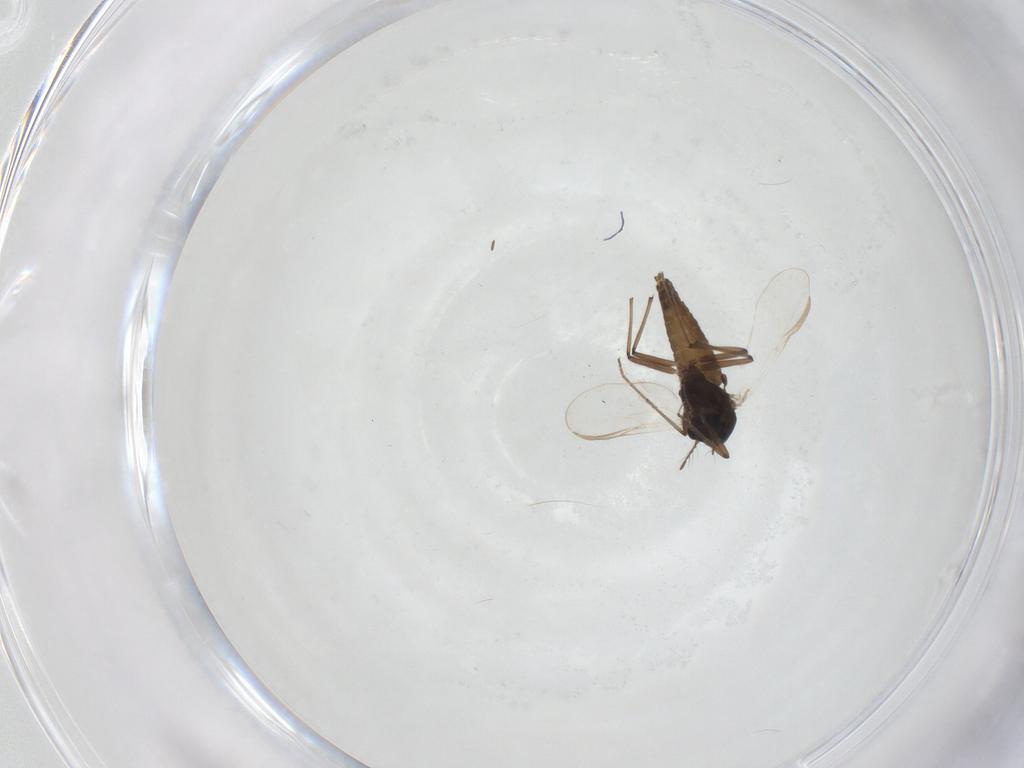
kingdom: Animalia
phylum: Arthropoda
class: Insecta
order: Diptera
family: Chironomidae
